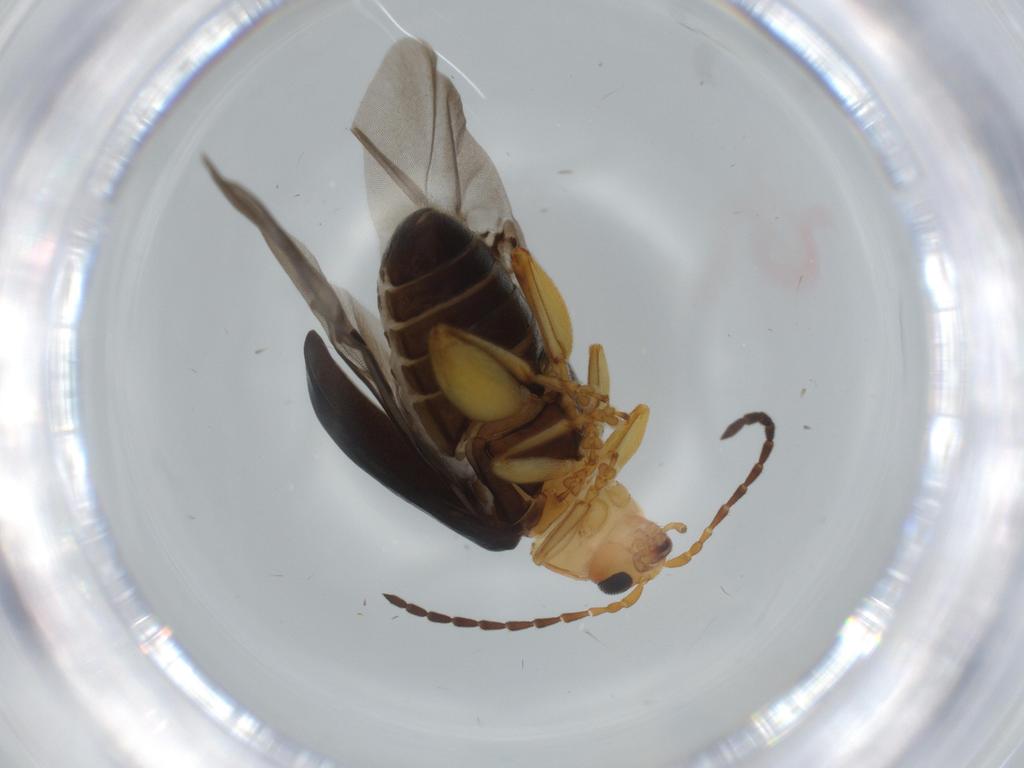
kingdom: Animalia
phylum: Arthropoda
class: Insecta
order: Coleoptera
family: Chrysomelidae
